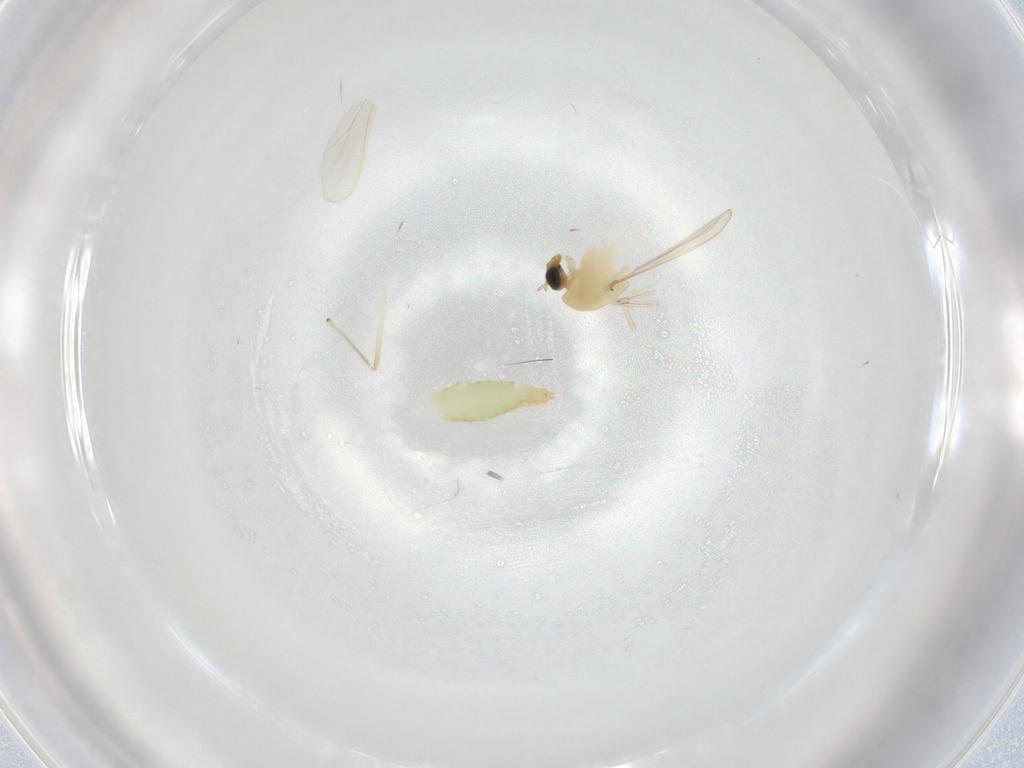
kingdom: Animalia
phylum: Arthropoda
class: Insecta
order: Diptera
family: Chironomidae
